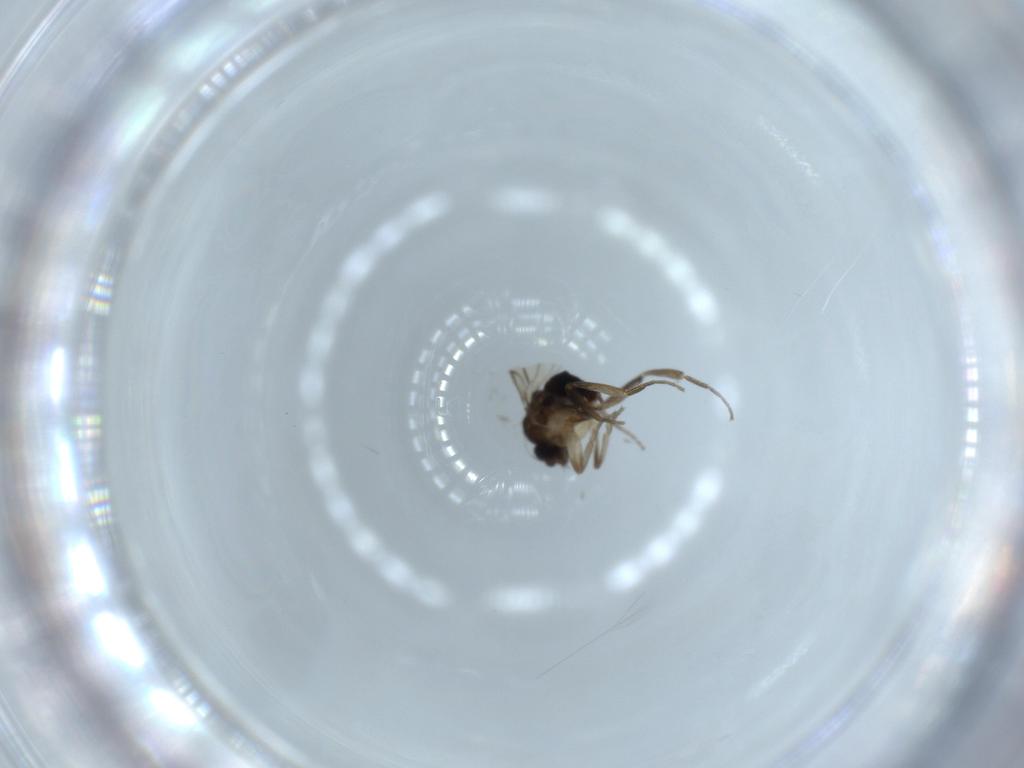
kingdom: Animalia
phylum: Arthropoda
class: Insecta
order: Diptera
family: Phoridae
